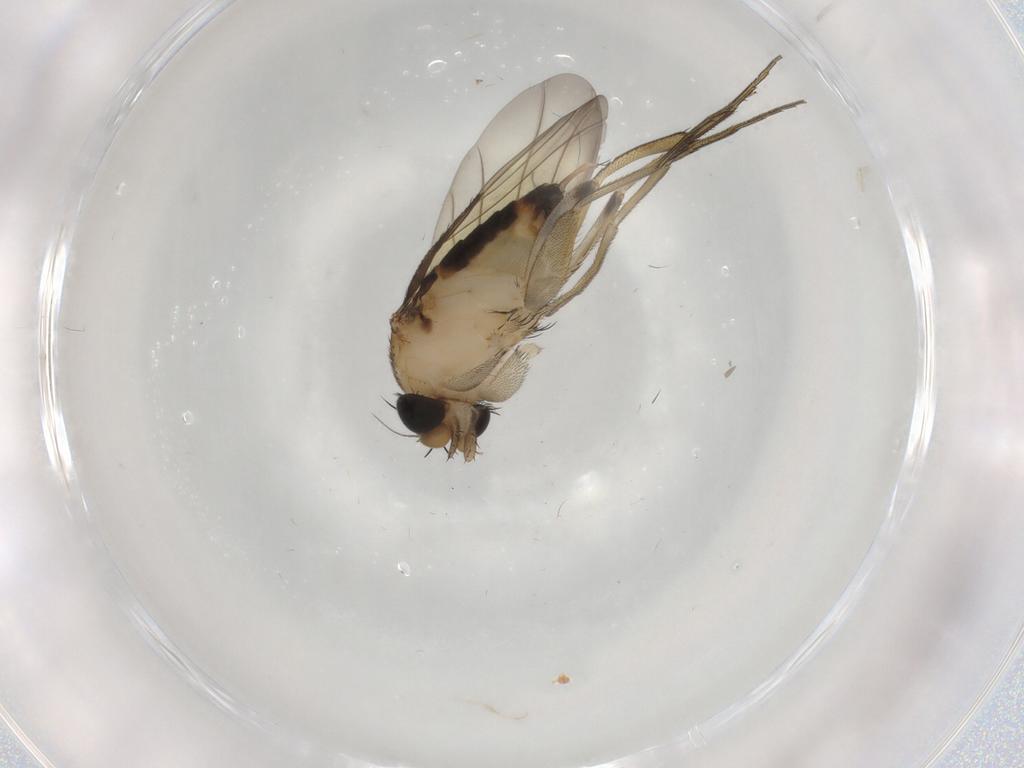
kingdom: Animalia
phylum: Arthropoda
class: Insecta
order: Diptera
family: Phoridae
